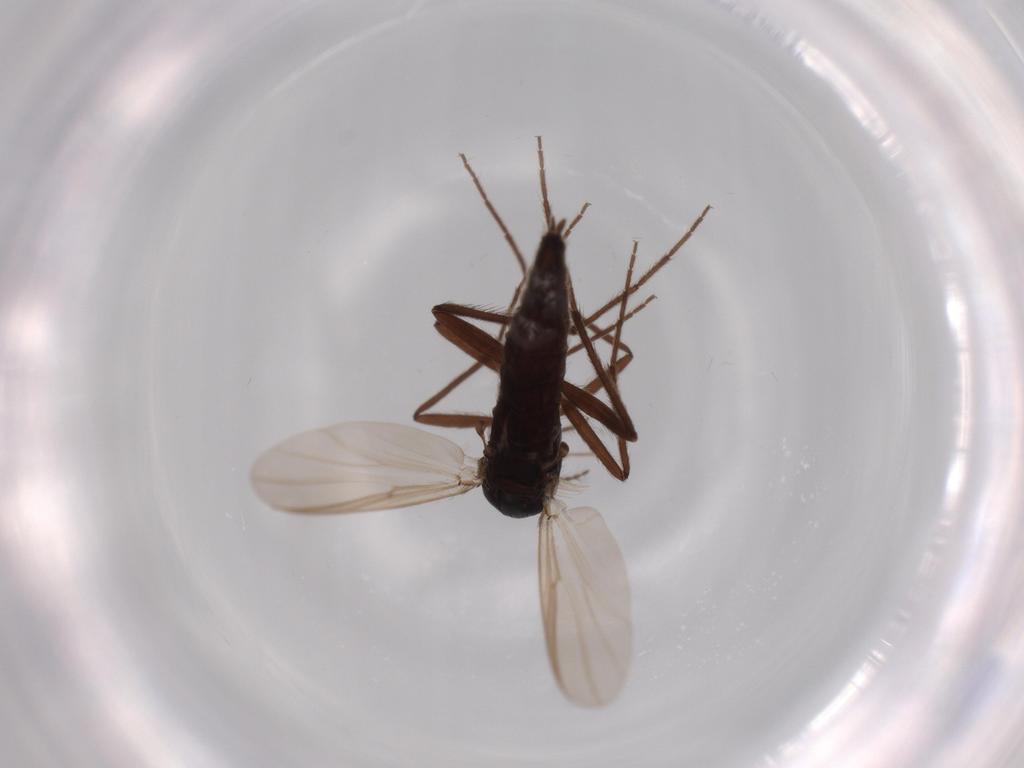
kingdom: Animalia
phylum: Arthropoda
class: Insecta
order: Diptera
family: Empididae
